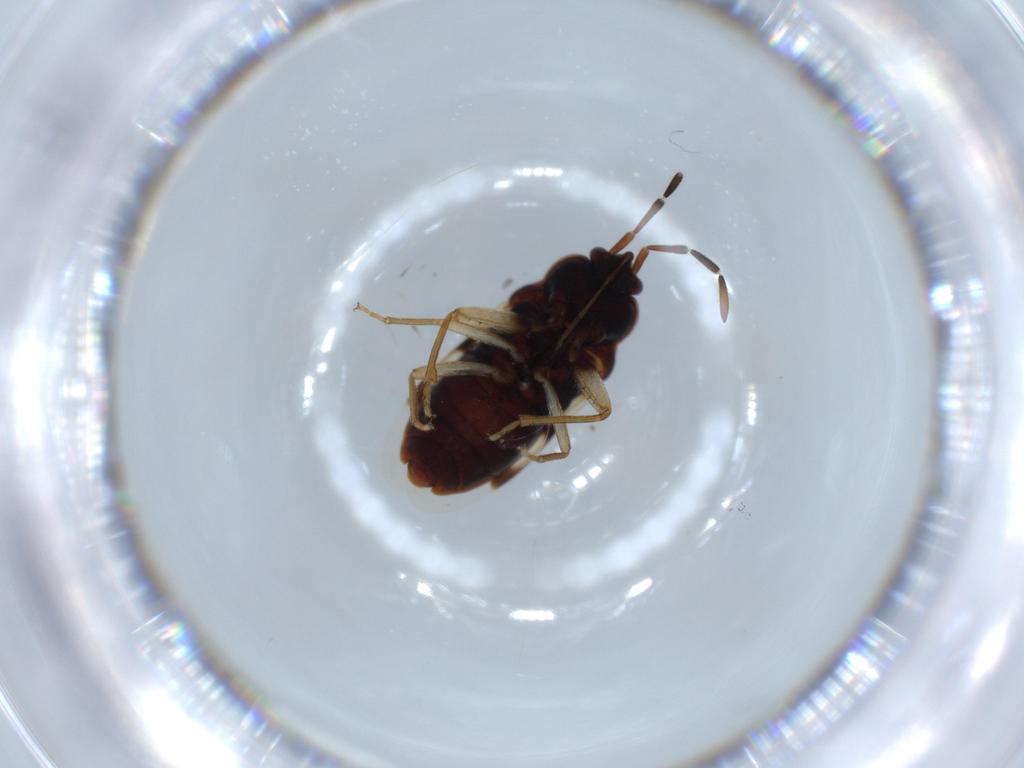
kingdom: Animalia
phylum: Arthropoda
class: Insecta
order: Hemiptera
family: Rhyparochromidae
